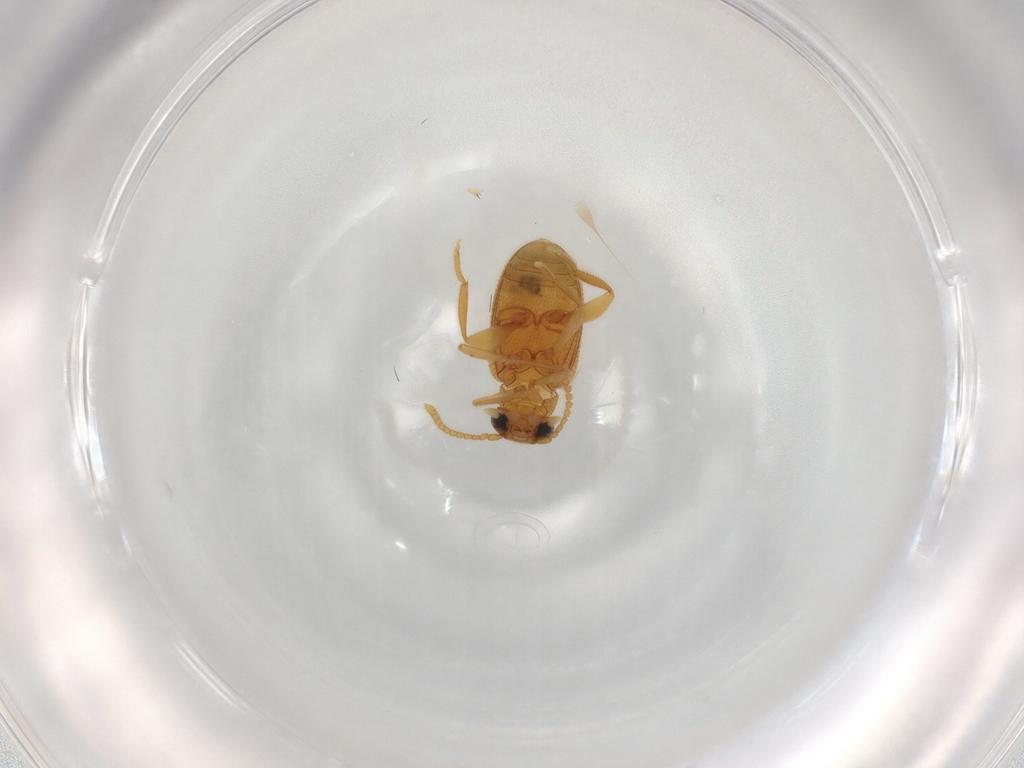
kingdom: Animalia
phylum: Arthropoda
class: Insecta
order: Coleoptera
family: Aderidae
